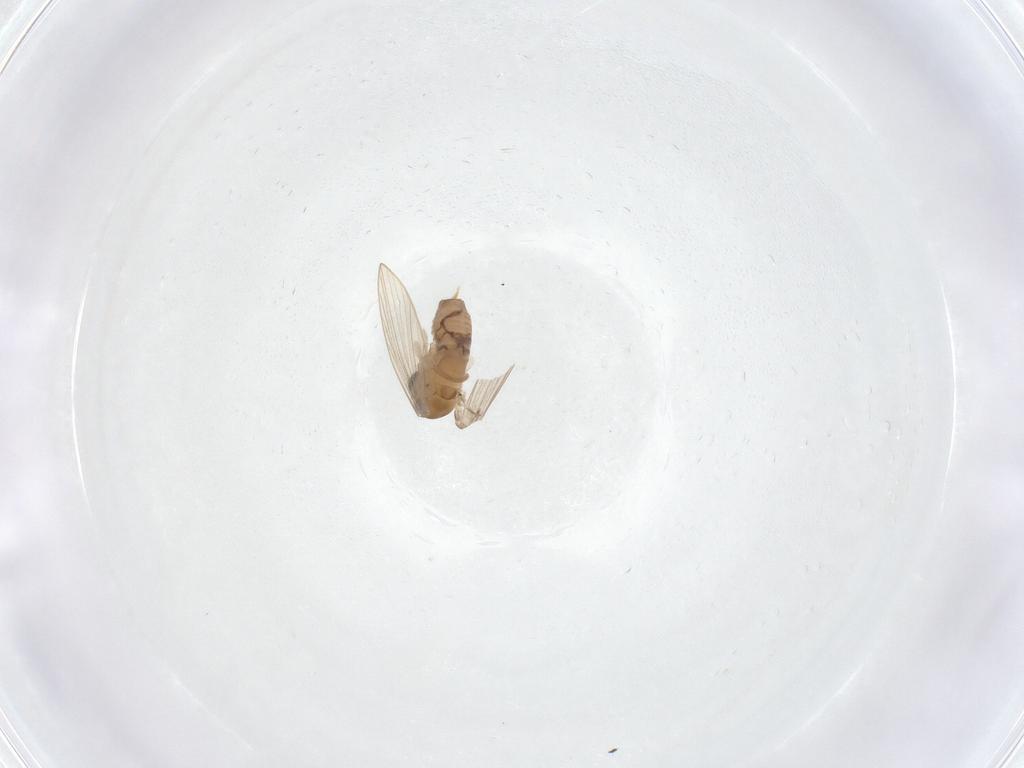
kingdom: Animalia
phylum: Arthropoda
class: Insecta
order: Diptera
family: Psychodidae
